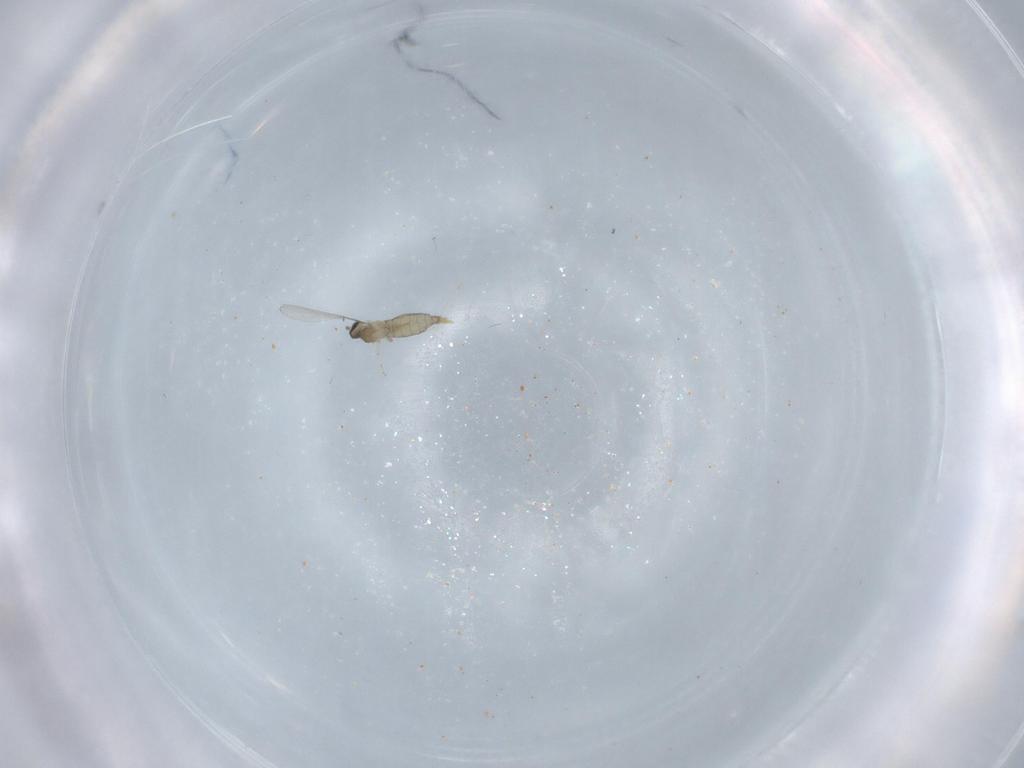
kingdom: Animalia
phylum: Arthropoda
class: Insecta
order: Diptera
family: Cecidomyiidae
